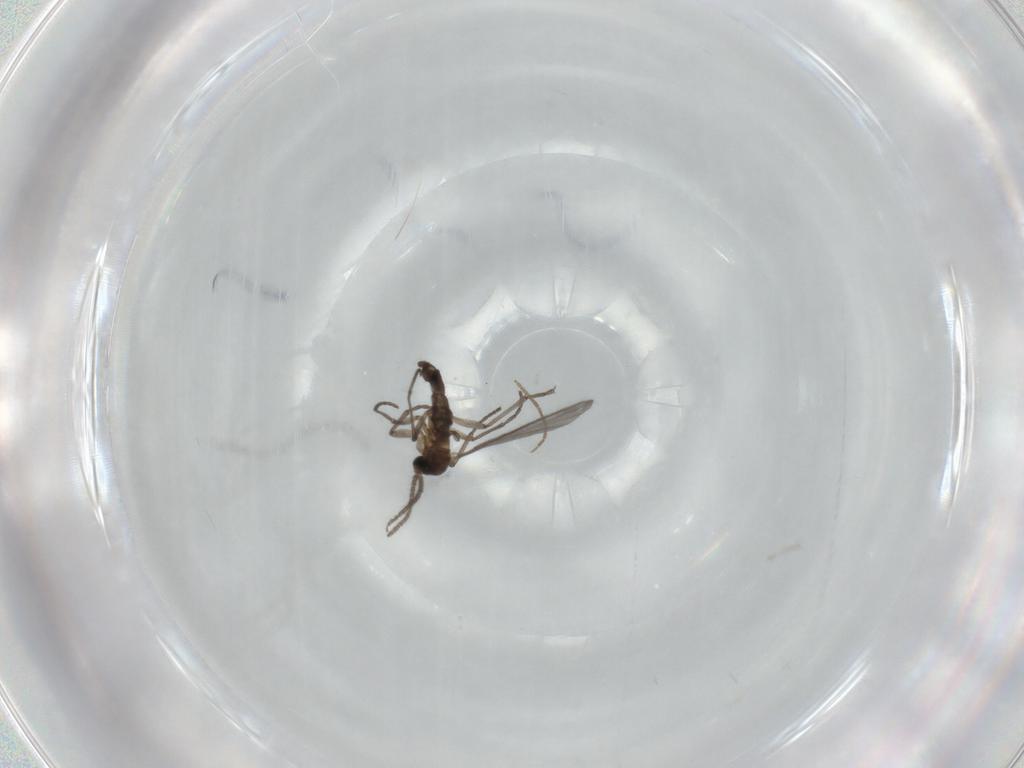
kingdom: Animalia
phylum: Arthropoda
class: Insecta
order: Diptera
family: Sciaridae
